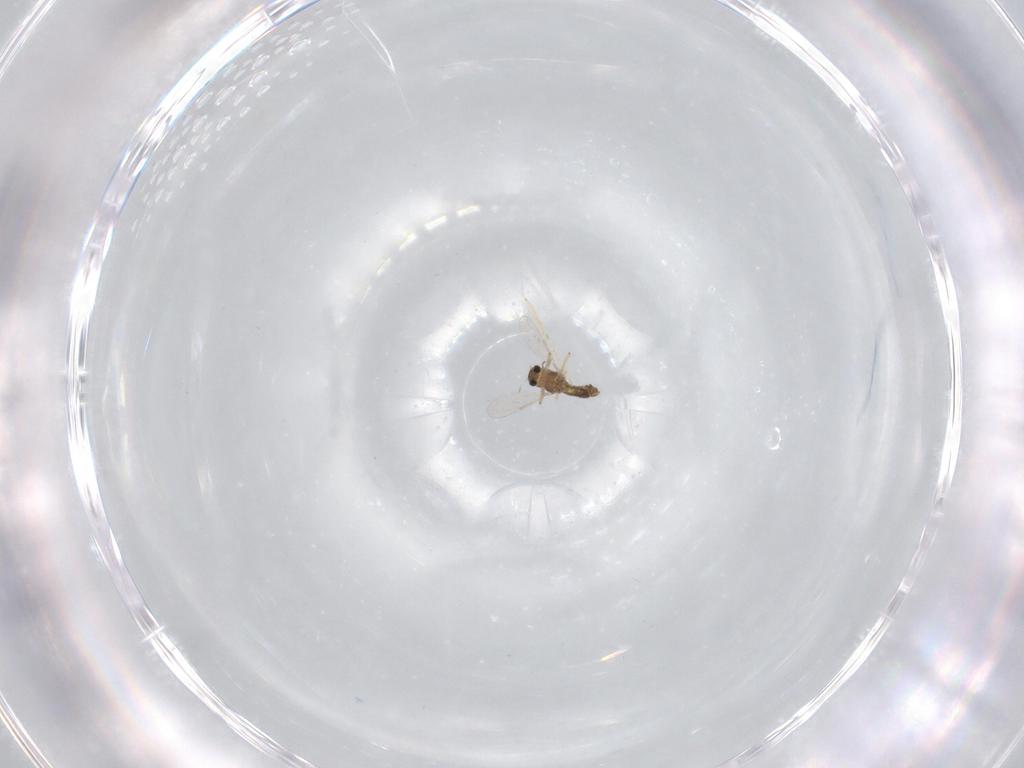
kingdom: Animalia
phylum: Arthropoda
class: Insecta
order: Diptera
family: Chironomidae
